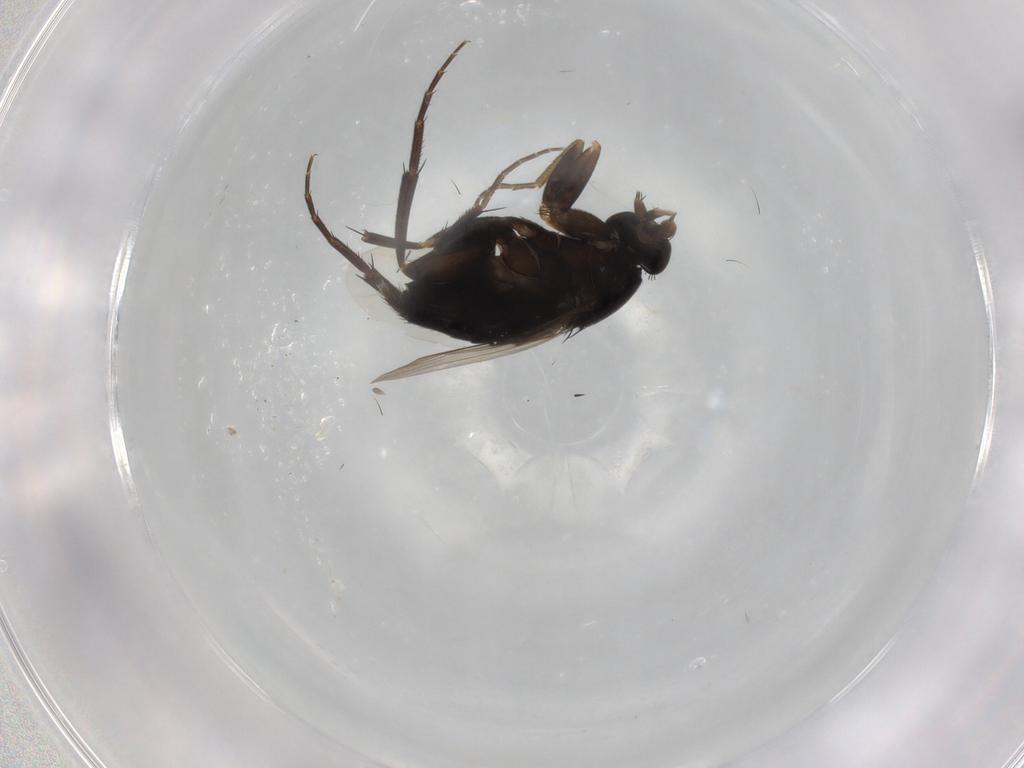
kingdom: Animalia
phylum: Arthropoda
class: Insecta
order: Diptera
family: Phoridae
